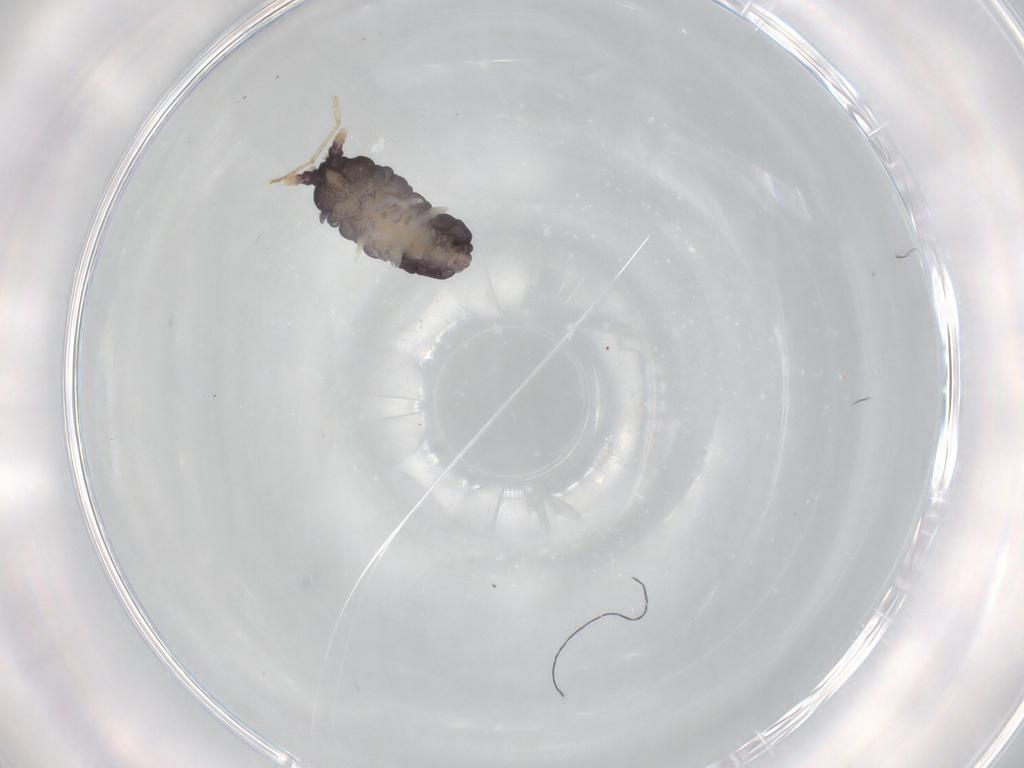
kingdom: Animalia
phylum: Arthropoda
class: Collembola
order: Poduromorpha
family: Neanuridae
